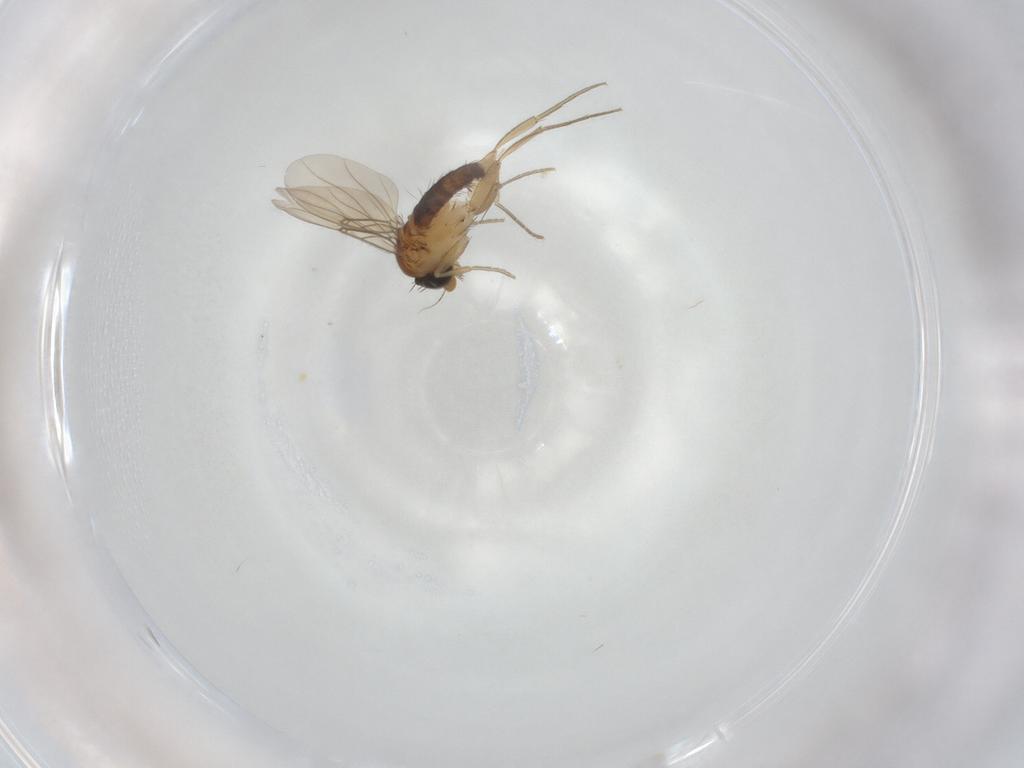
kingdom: Animalia
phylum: Arthropoda
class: Insecta
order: Diptera
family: Phoridae
